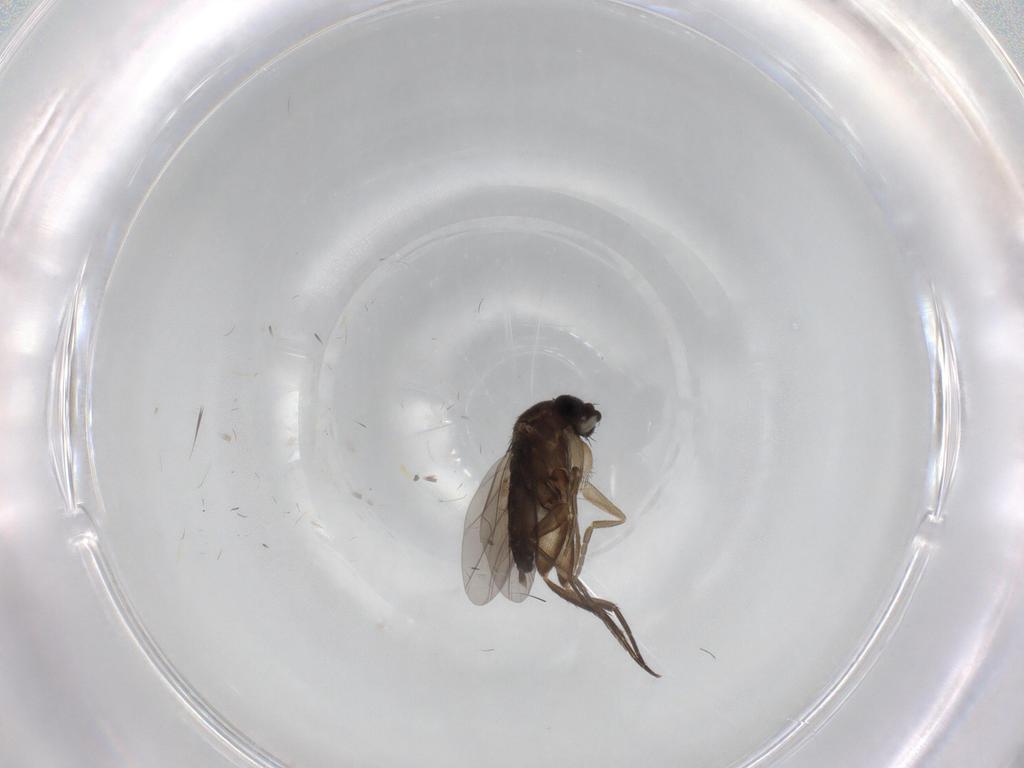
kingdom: Animalia
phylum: Arthropoda
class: Insecta
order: Diptera
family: Phoridae
